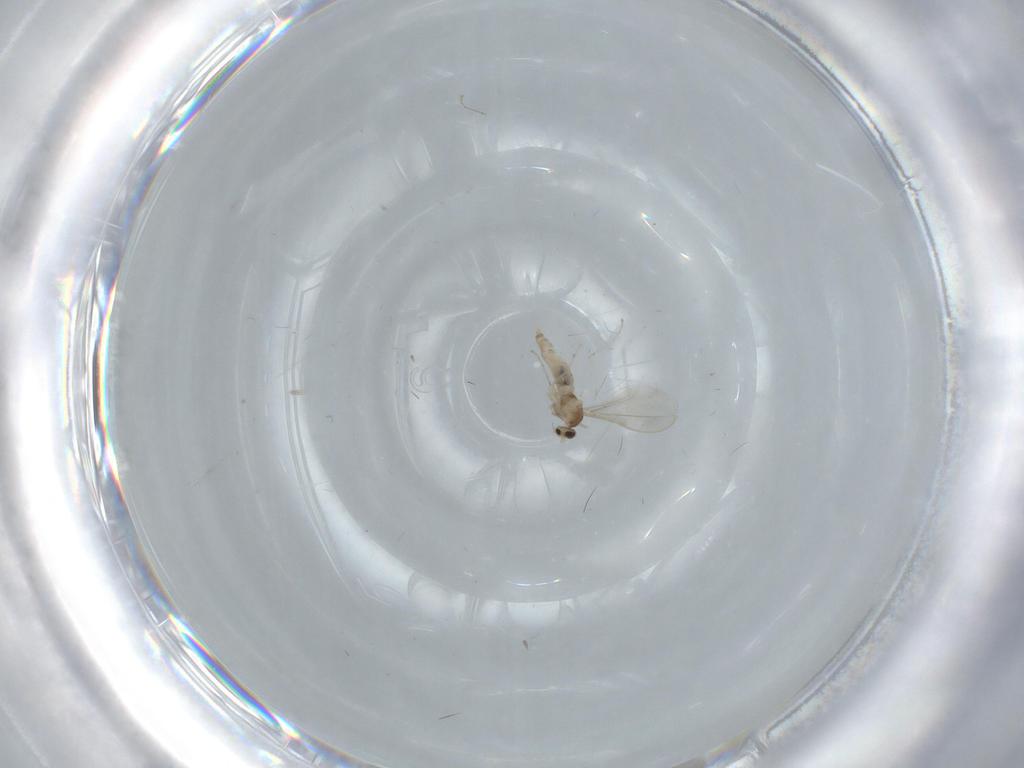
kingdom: Animalia
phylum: Arthropoda
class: Insecta
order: Diptera
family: Cecidomyiidae
